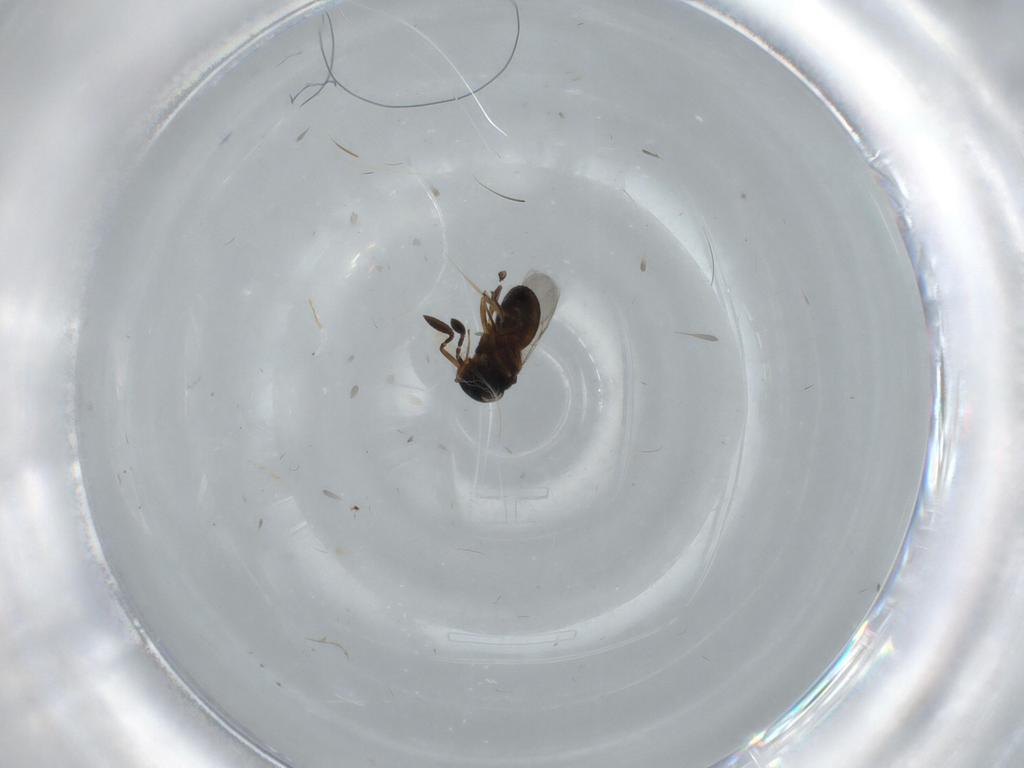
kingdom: Animalia
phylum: Arthropoda
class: Insecta
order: Hymenoptera
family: Scelionidae
